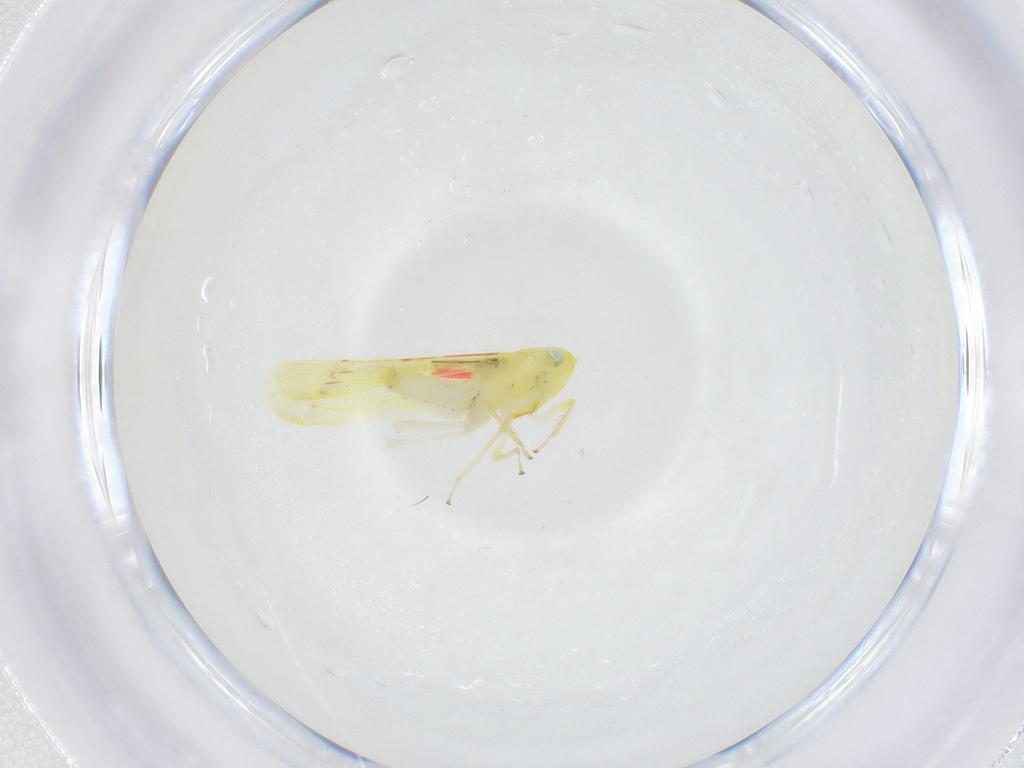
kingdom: Animalia
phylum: Arthropoda
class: Insecta
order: Hemiptera
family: Cicadellidae
